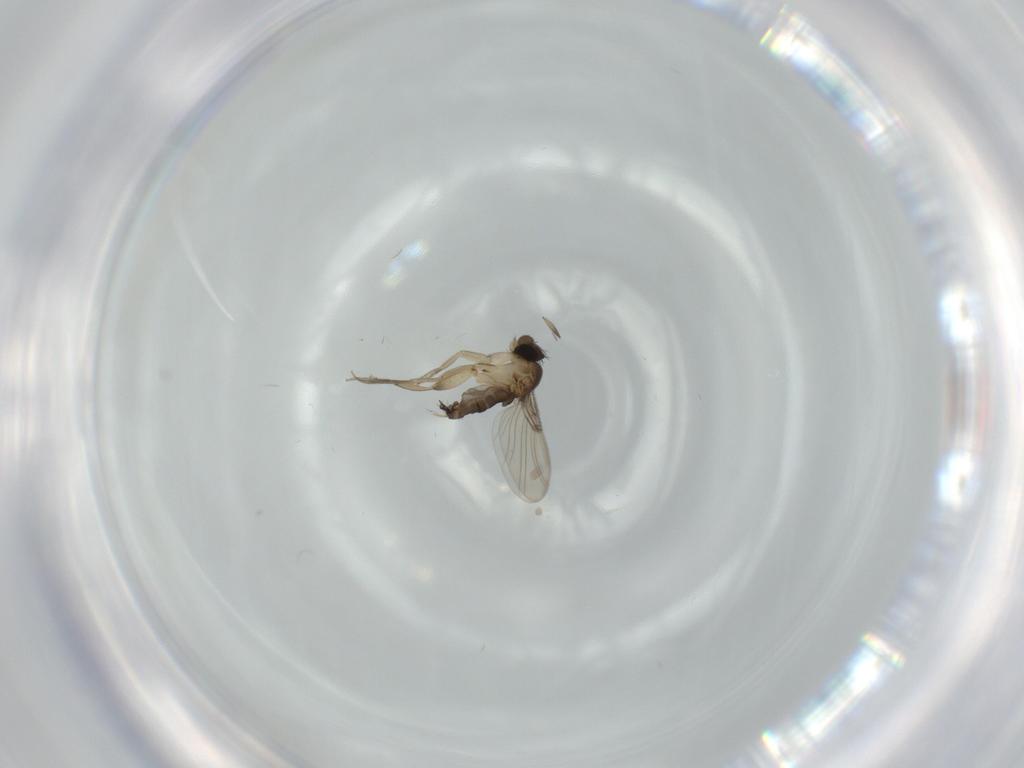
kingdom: Animalia
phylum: Arthropoda
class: Insecta
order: Diptera
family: Phoridae
